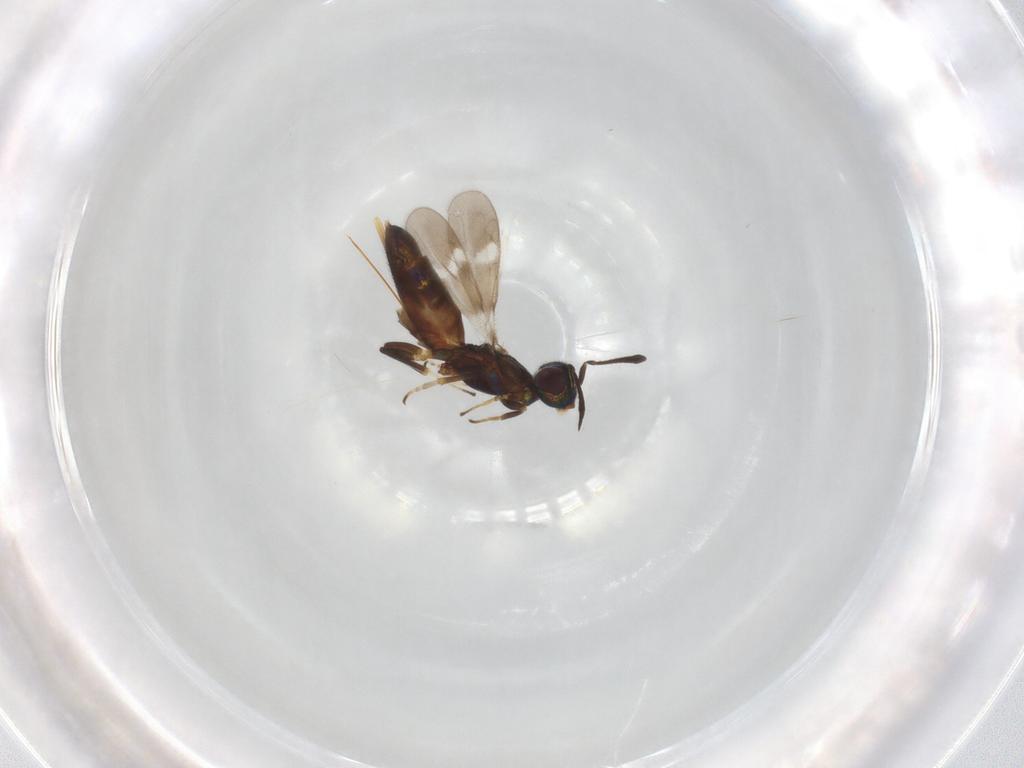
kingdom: Animalia
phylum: Arthropoda
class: Insecta
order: Hymenoptera
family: Eupelmidae
